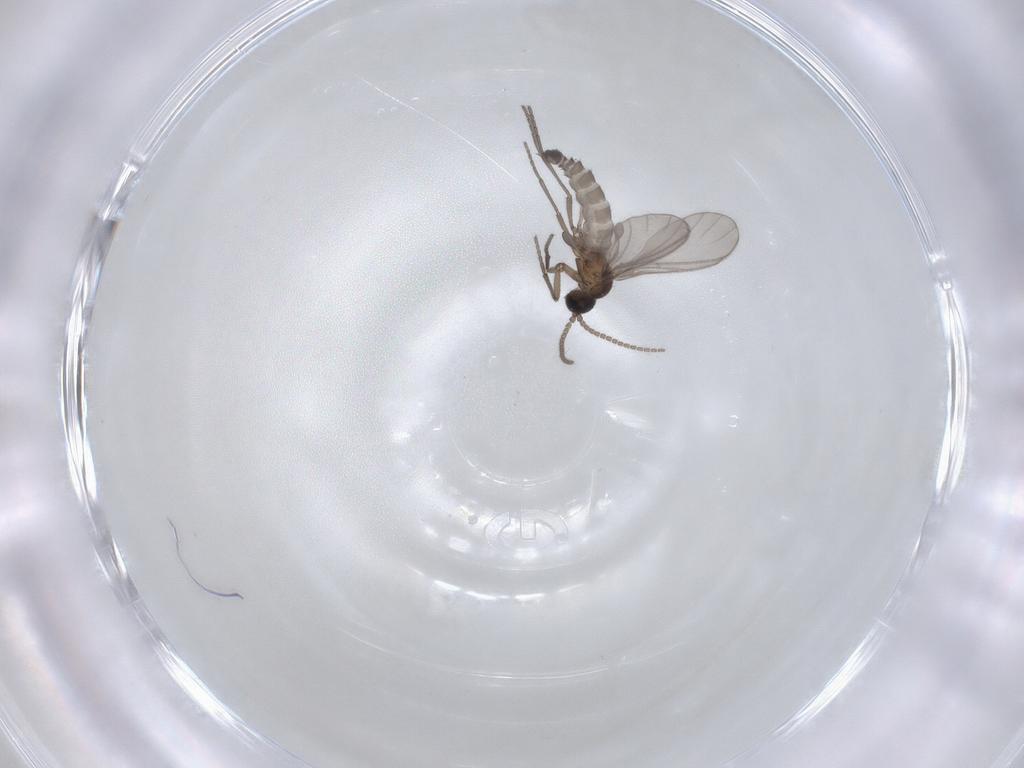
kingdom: Animalia
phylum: Arthropoda
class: Insecta
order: Diptera
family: Sciaridae
